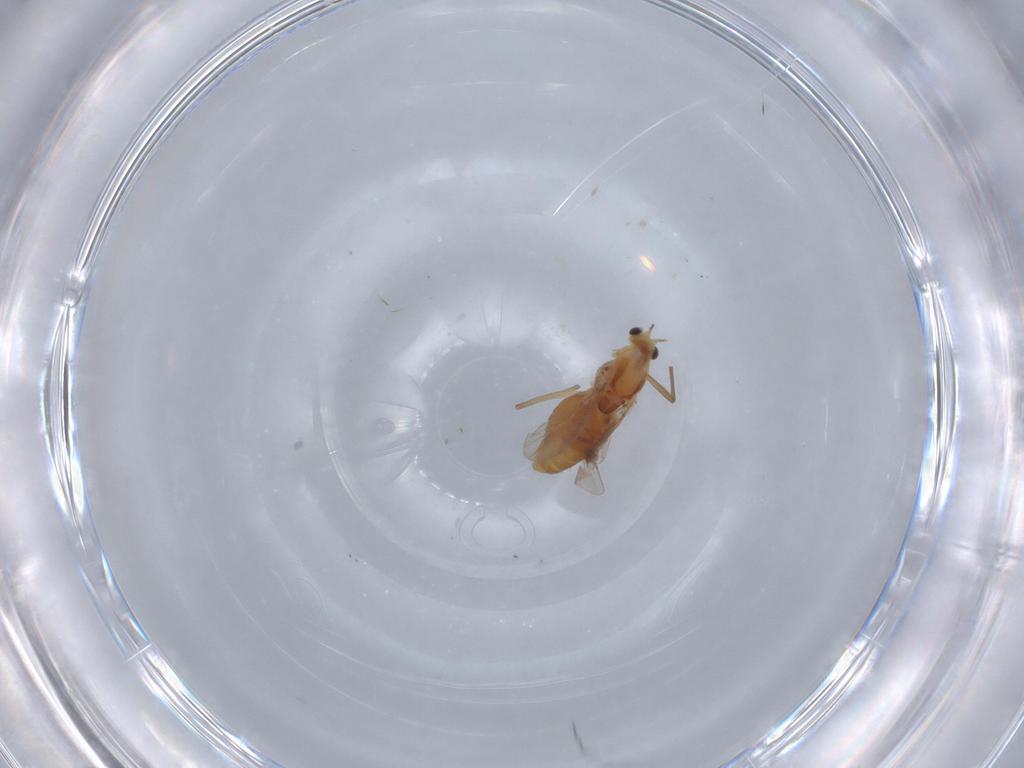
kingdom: Animalia
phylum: Arthropoda
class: Insecta
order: Diptera
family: Chironomidae
